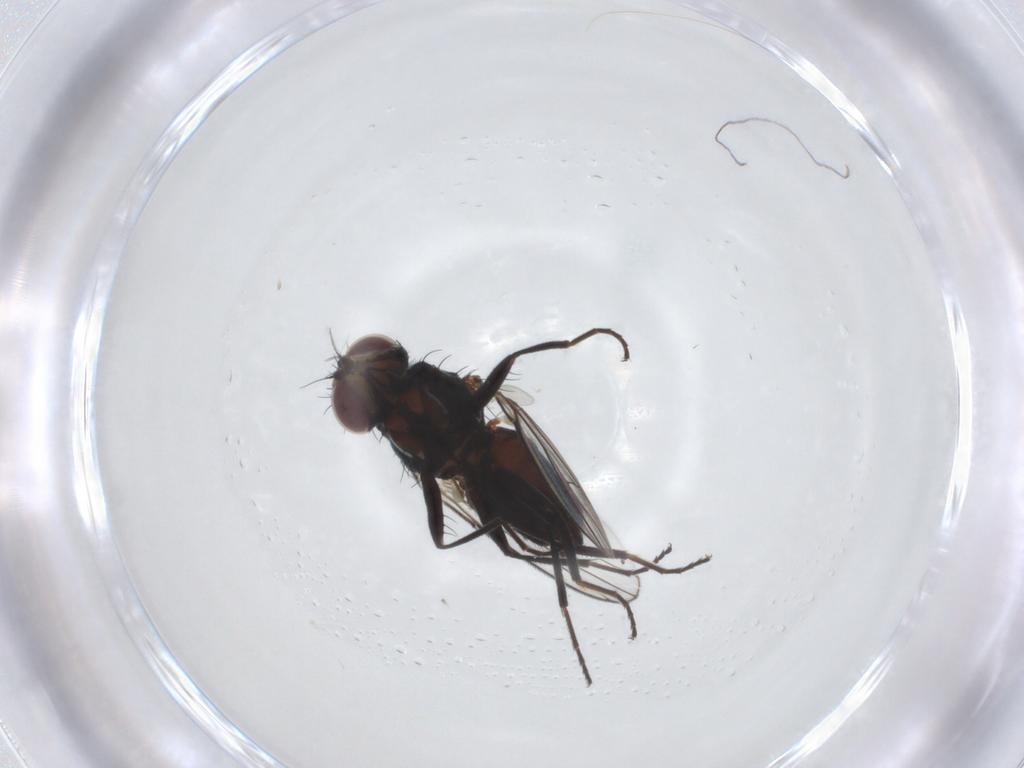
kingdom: Animalia
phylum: Arthropoda
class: Insecta
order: Diptera
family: Carnidae
